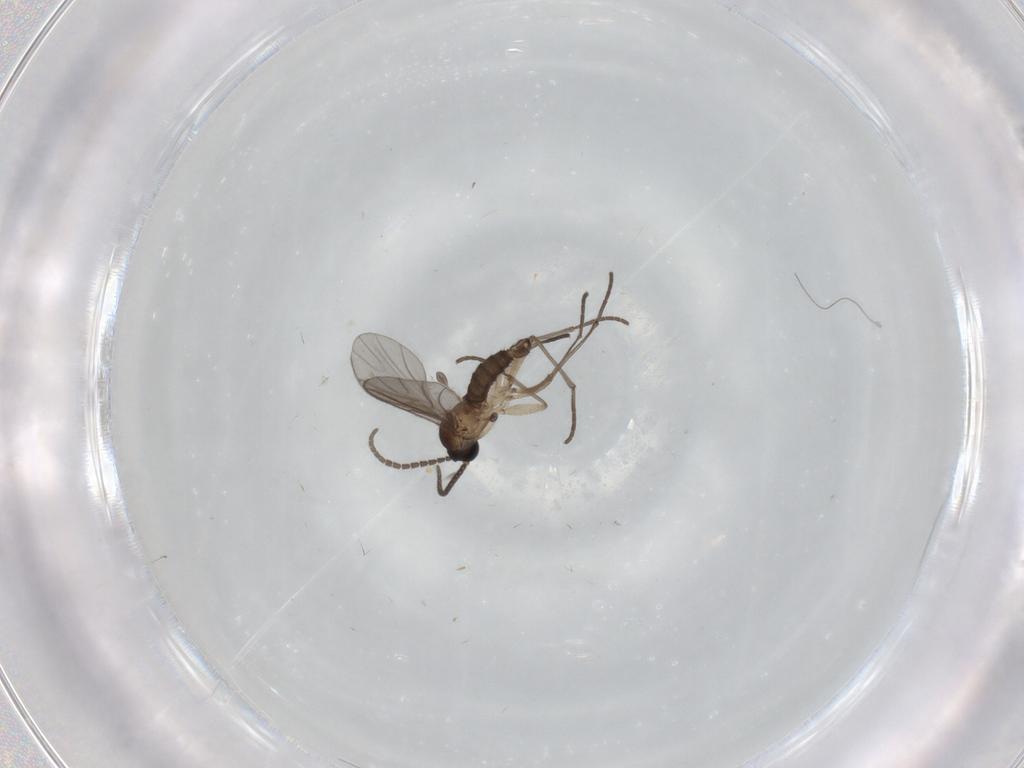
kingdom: Animalia
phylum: Arthropoda
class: Insecta
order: Diptera
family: Sciaridae
